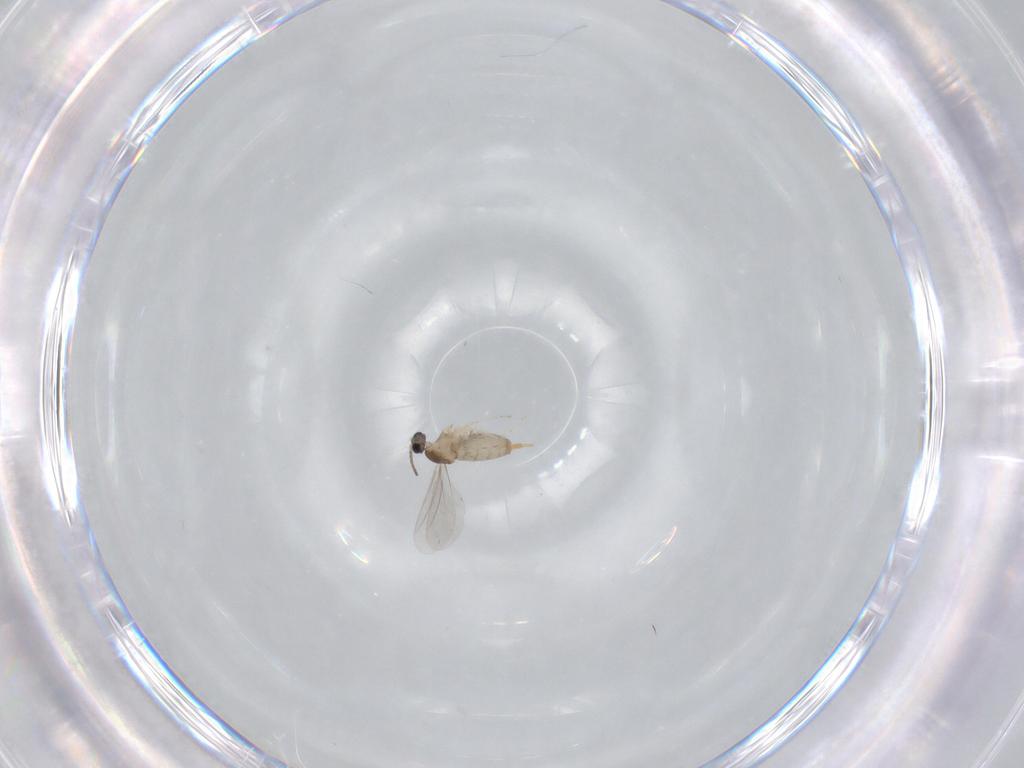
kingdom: Animalia
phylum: Arthropoda
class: Insecta
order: Diptera
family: Cecidomyiidae
